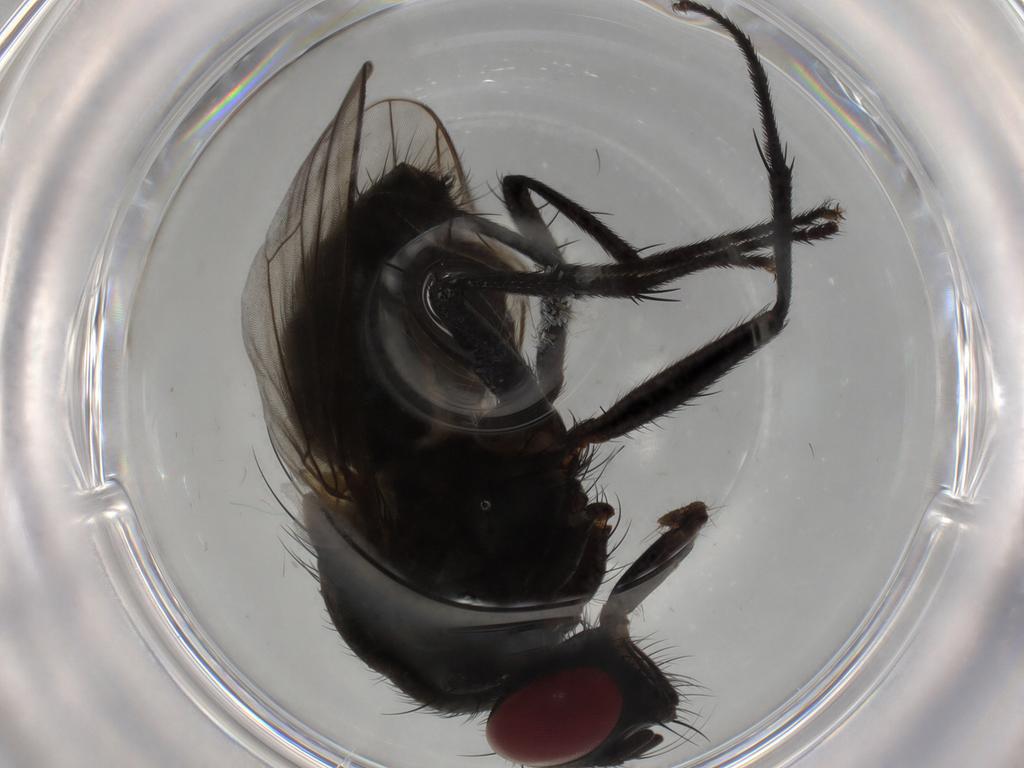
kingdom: Animalia
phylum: Arthropoda
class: Insecta
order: Diptera
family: Muscidae
